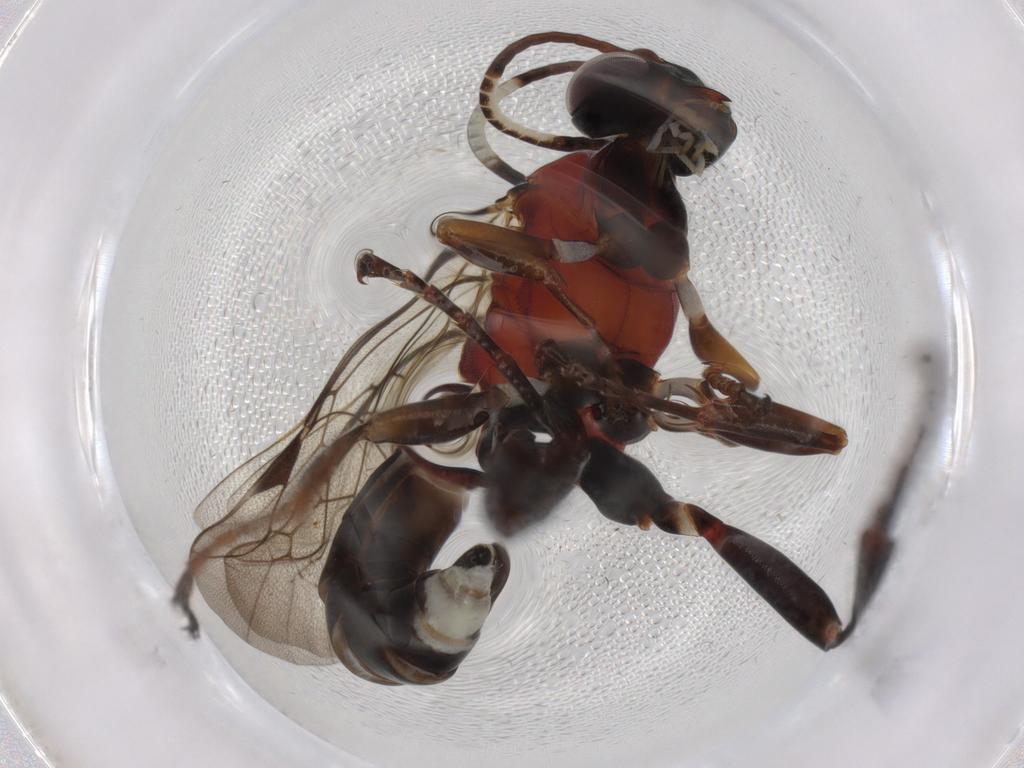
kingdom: Animalia
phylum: Arthropoda
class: Insecta
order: Hymenoptera
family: Ichneumonidae
